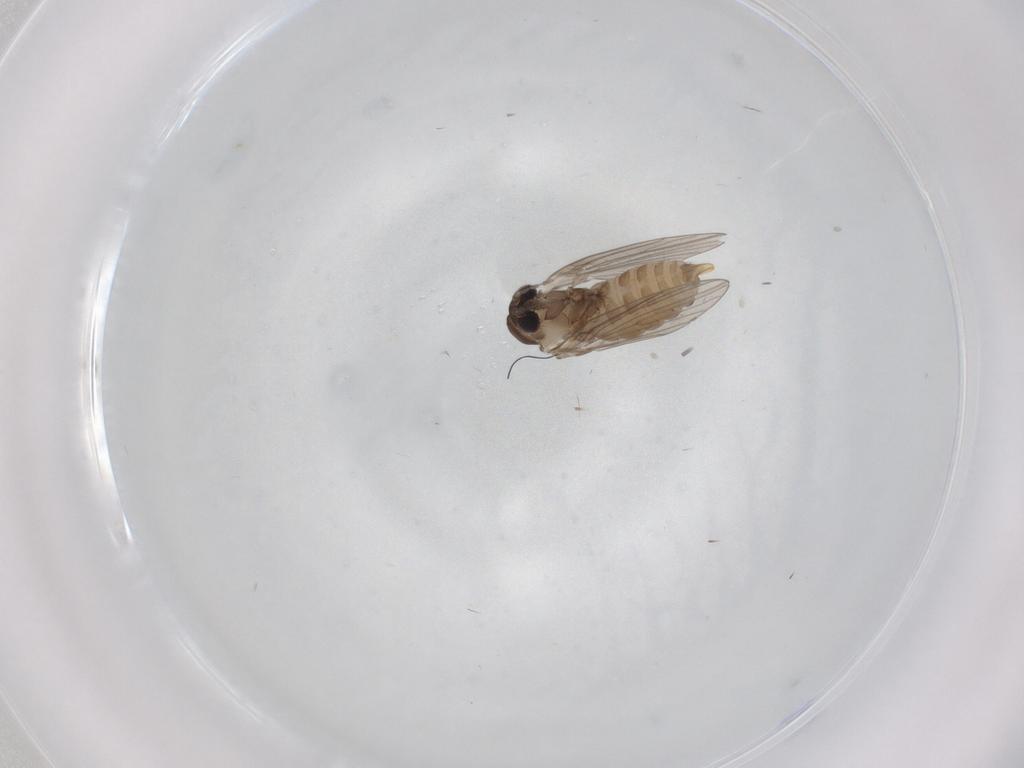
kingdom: Animalia
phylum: Arthropoda
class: Insecta
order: Diptera
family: Psychodidae
